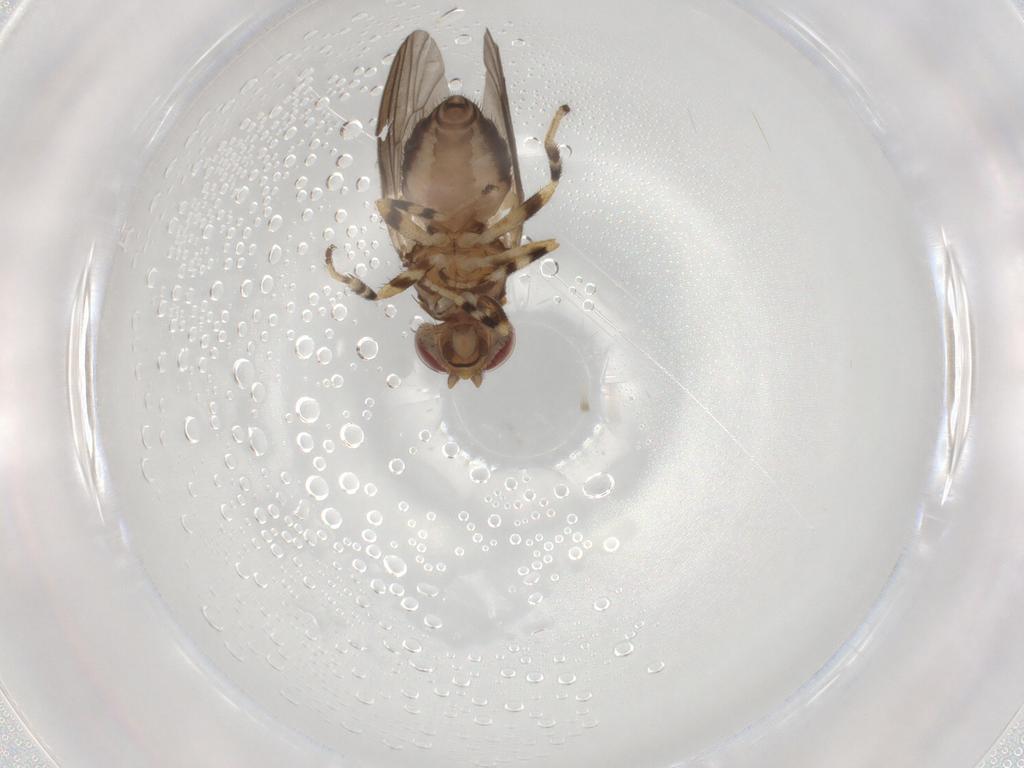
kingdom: Animalia
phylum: Arthropoda
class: Insecta
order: Diptera
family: Periscelididae
